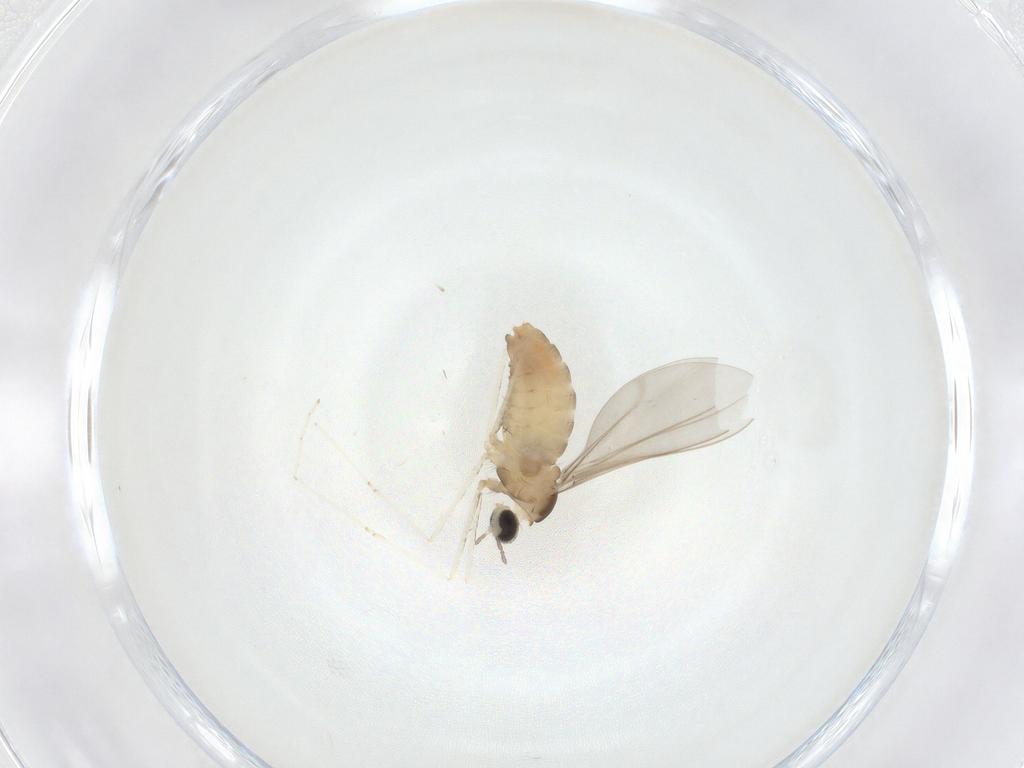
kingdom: Animalia
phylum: Arthropoda
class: Insecta
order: Diptera
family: Cecidomyiidae
